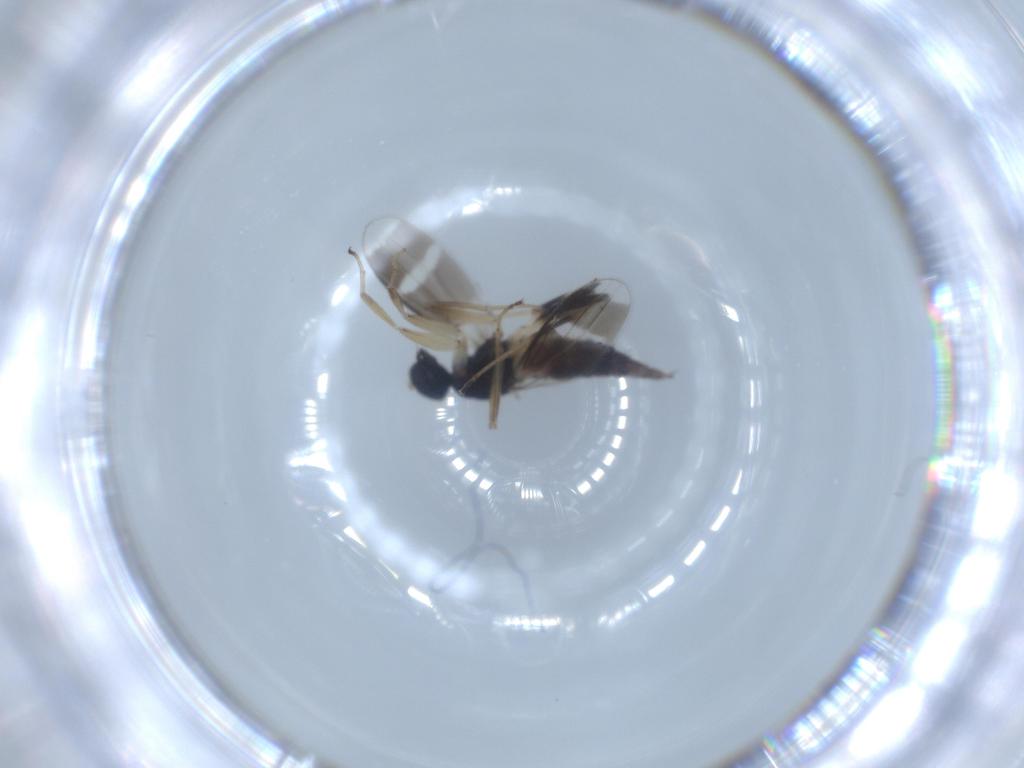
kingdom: Animalia
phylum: Arthropoda
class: Insecta
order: Diptera
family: Hybotidae
